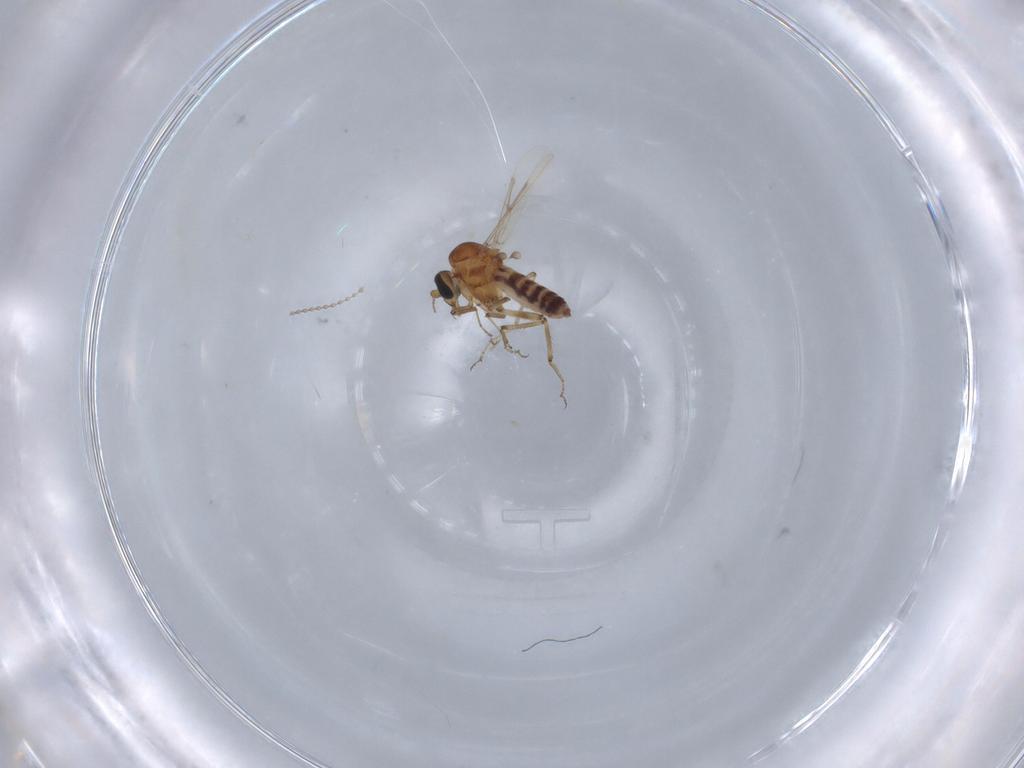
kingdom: Animalia
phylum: Arthropoda
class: Insecta
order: Diptera
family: Ceratopogonidae
